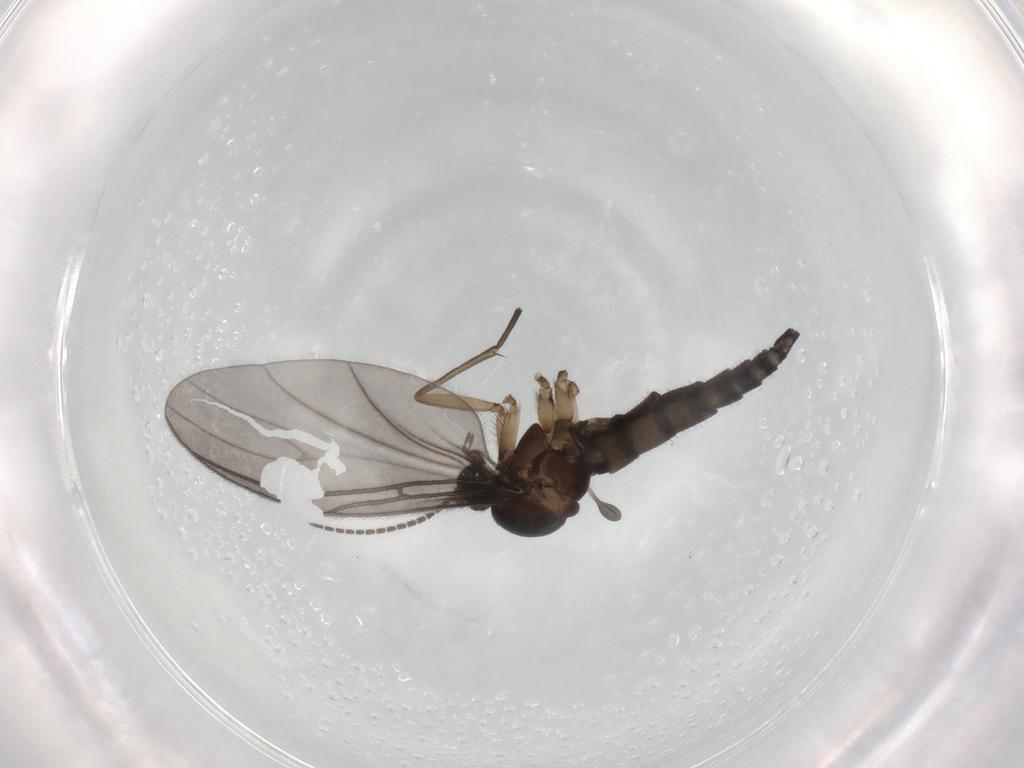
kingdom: Animalia
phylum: Arthropoda
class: Insecta
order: Diptera
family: Sciaridae
